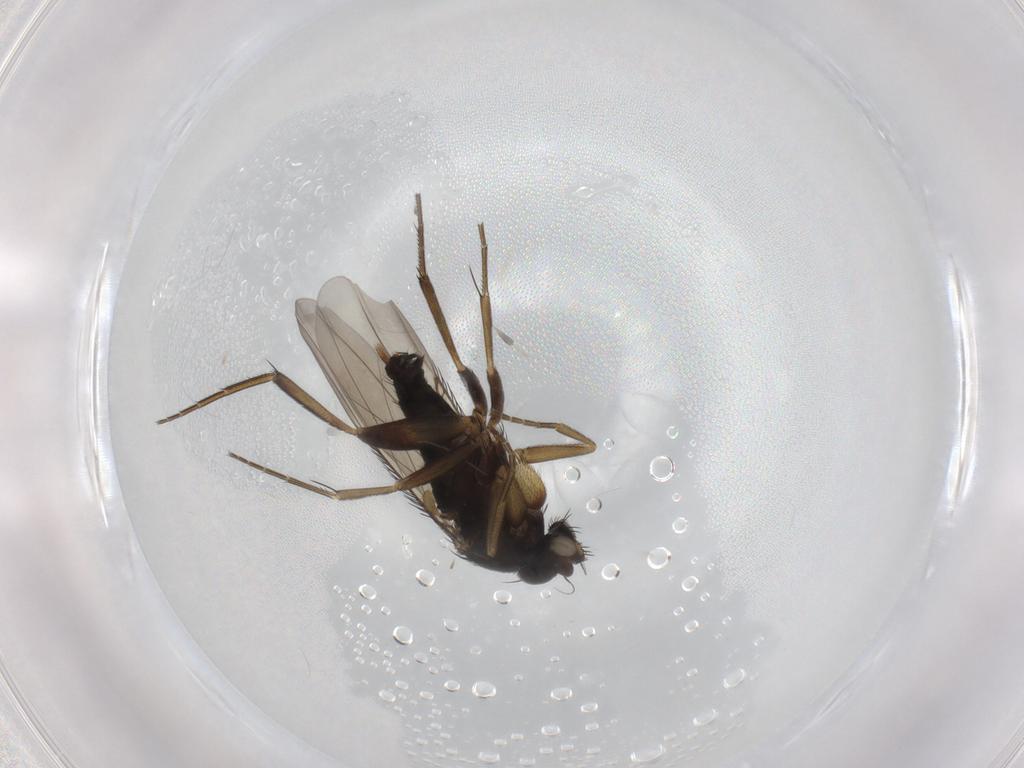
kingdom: Animalia
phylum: Arthropoda
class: Insecta
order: Diptera
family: Phoridae
